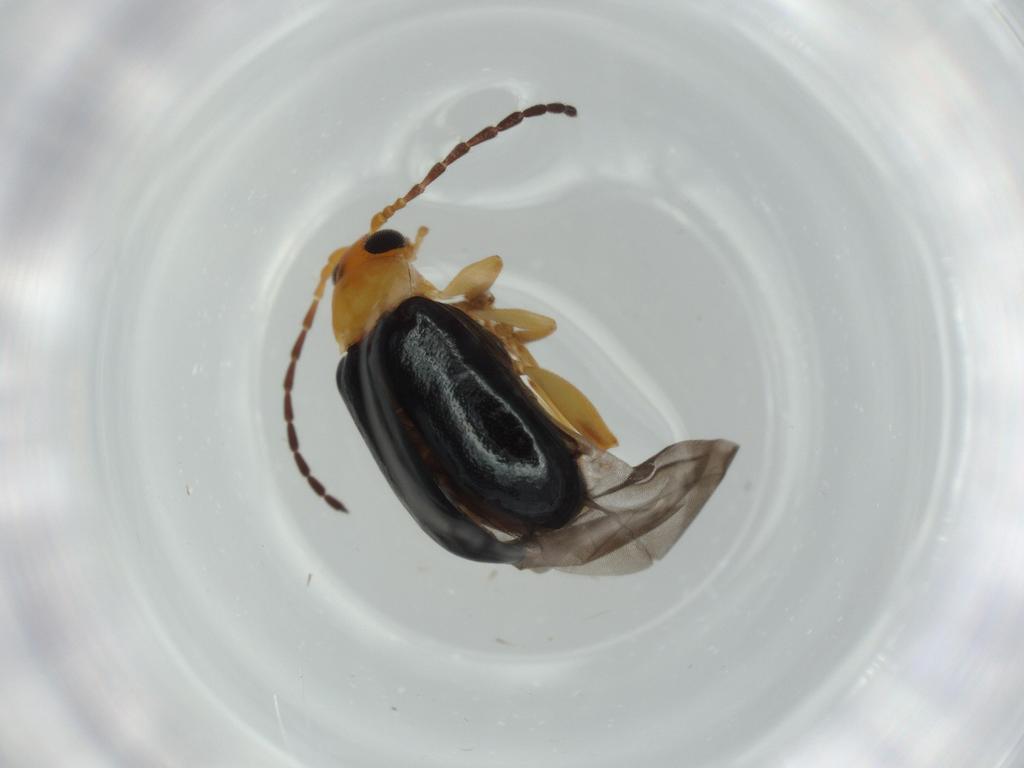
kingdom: Animalia
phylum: Arthropoda
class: Insecta
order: Coleoptera
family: Chrysomelidae
